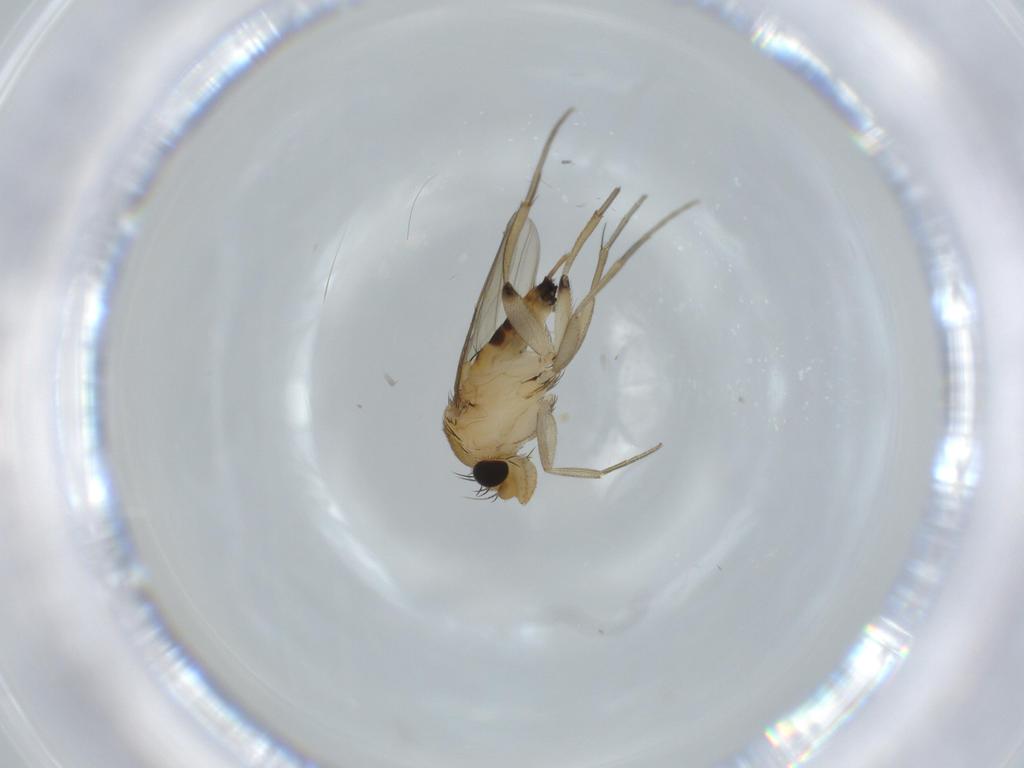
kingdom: Animalia
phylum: Arthropoda
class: Insecta
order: Diptera
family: Phoridae
